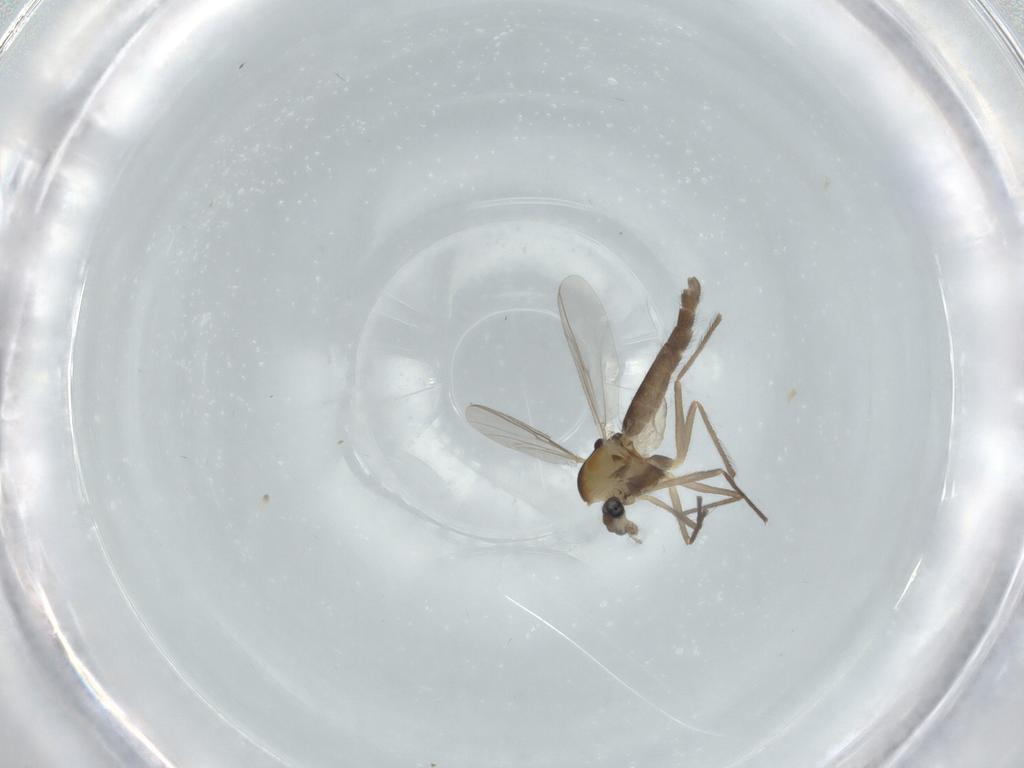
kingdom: Animalia
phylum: Arthropoda
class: Insecta
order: Diptera
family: Chironomidae
